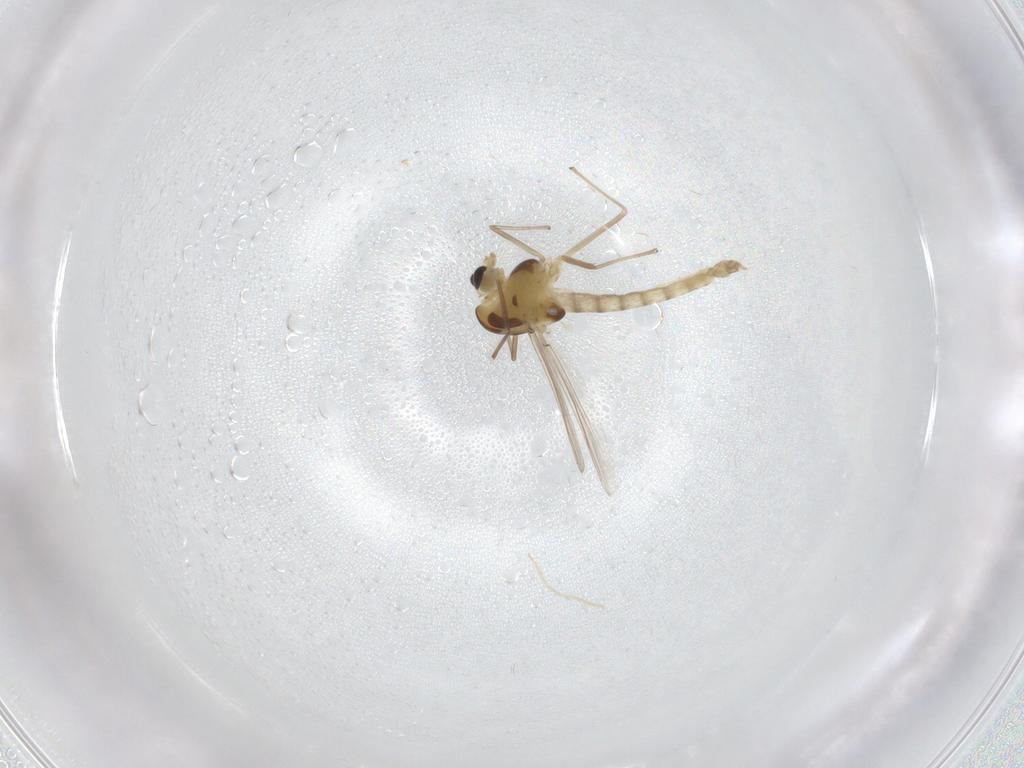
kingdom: Animalia
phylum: Arthropoda
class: Insecta
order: Diptera
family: Chironomidae
